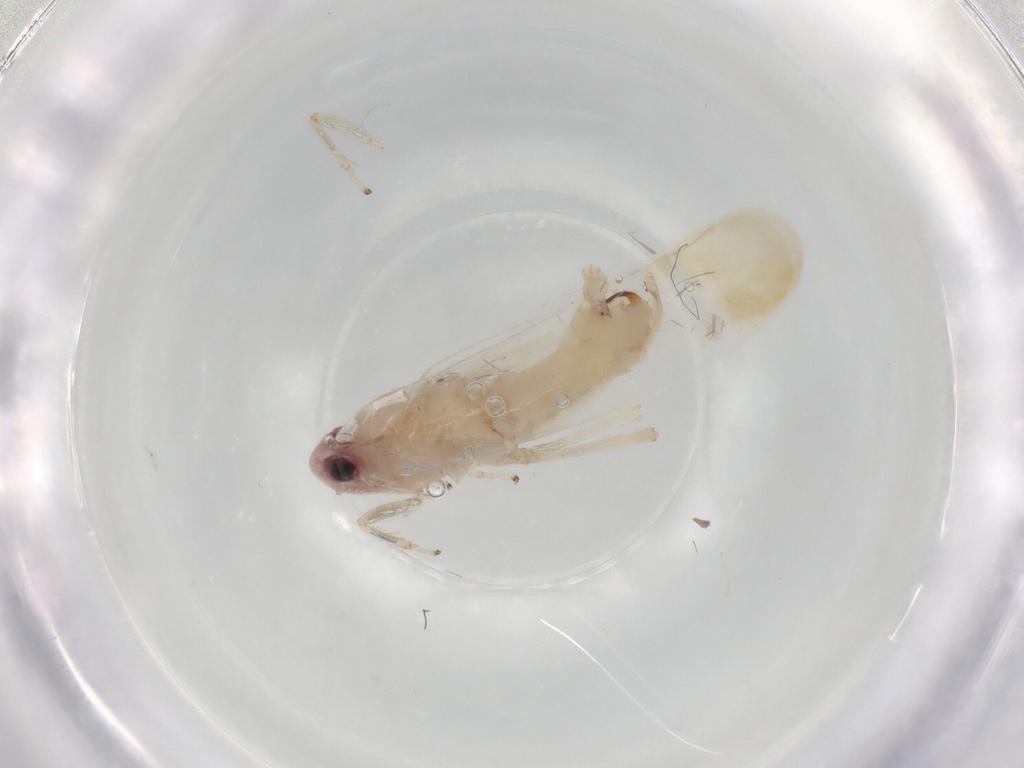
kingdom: Animalia
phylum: Arthropoda
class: Insecta
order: Hemiptera
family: Cicadellidae
